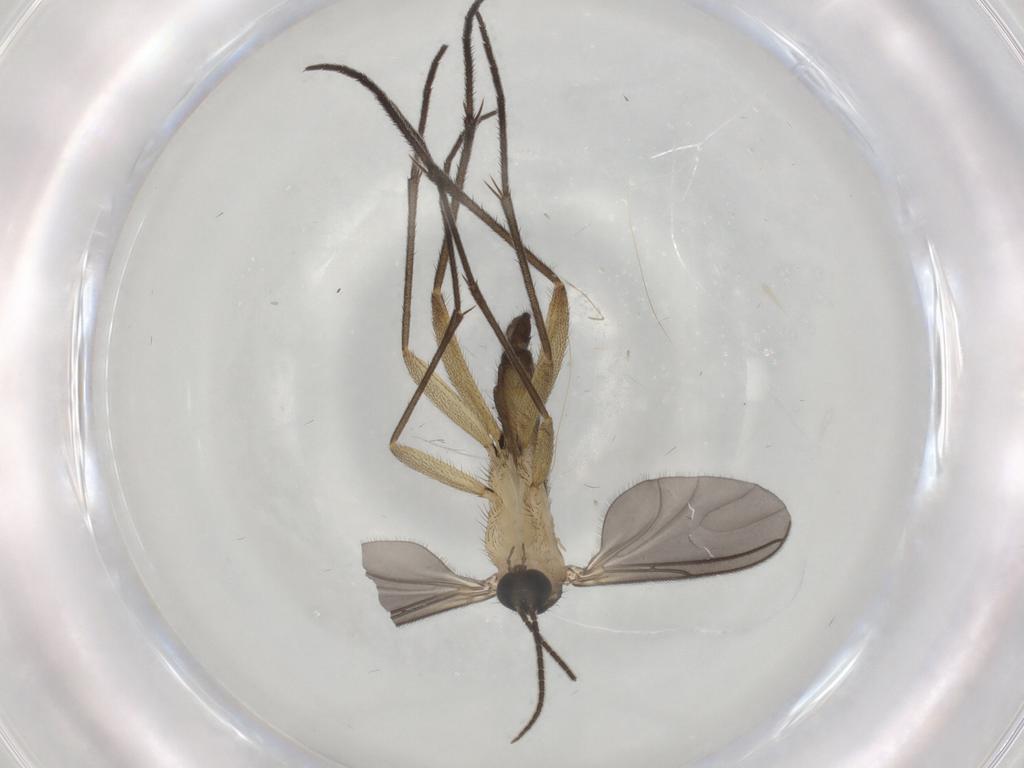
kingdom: Animalia
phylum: Arthropoda
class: Insecta
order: Diptera
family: Sciaridae
